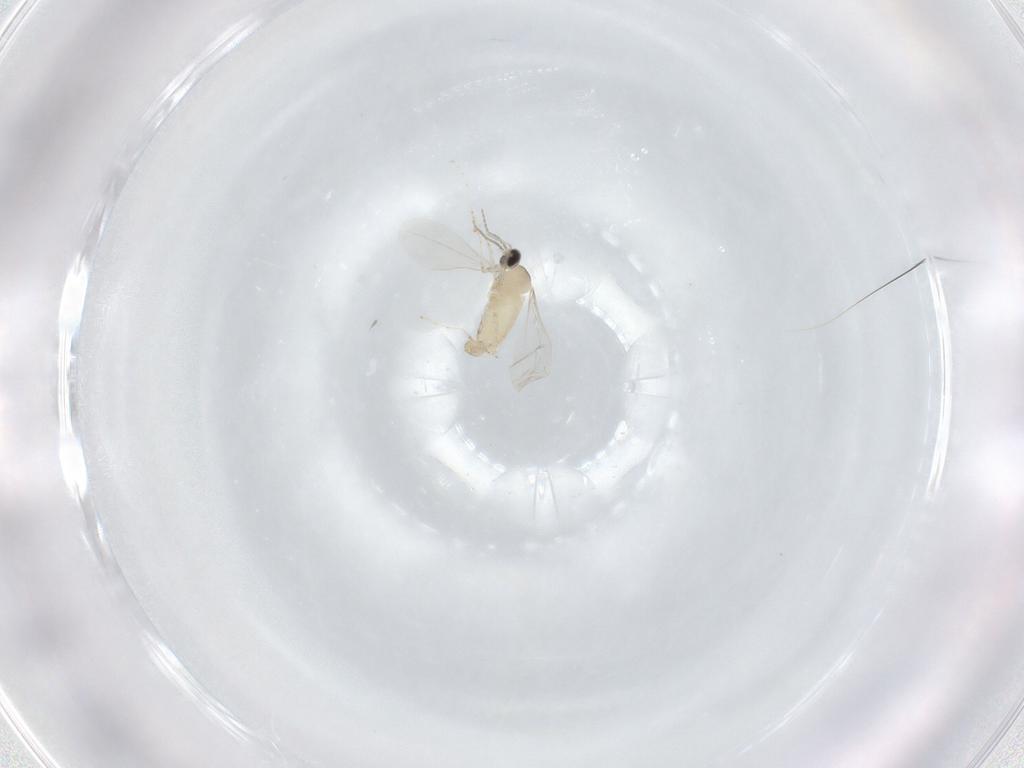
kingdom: Animalia
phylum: Arthropoda
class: Insecta
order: Diptera
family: Cecidomyiidae
